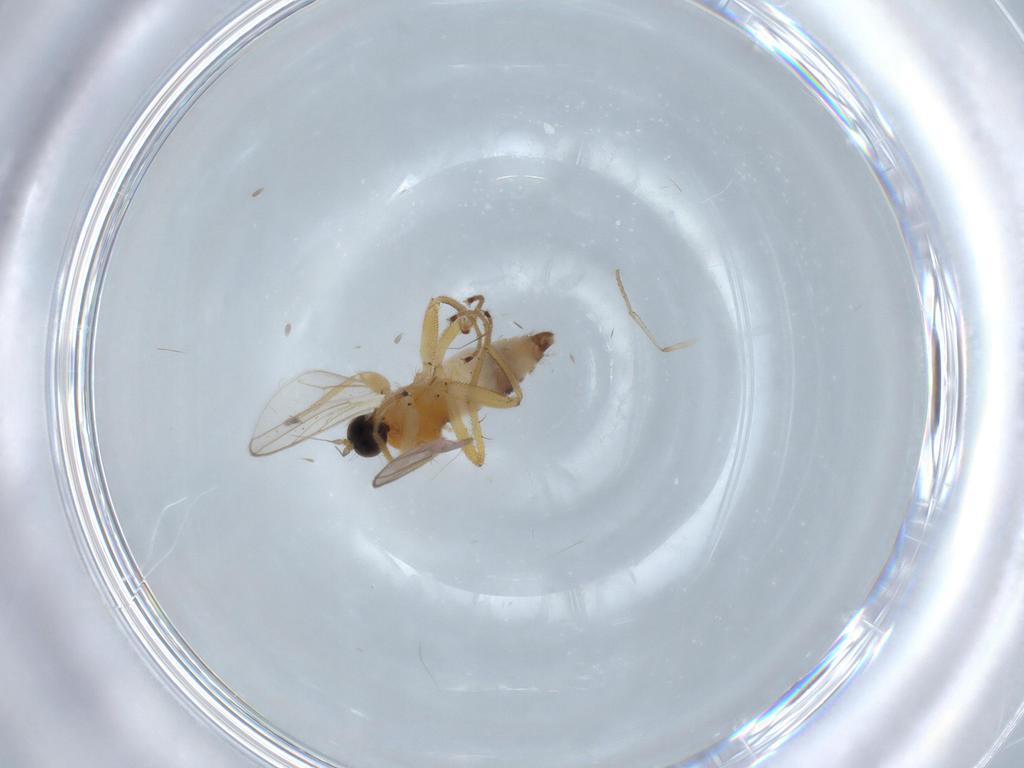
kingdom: Animalia
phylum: Arthropoda
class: Insecta
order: Diptera
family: Hybotidae
